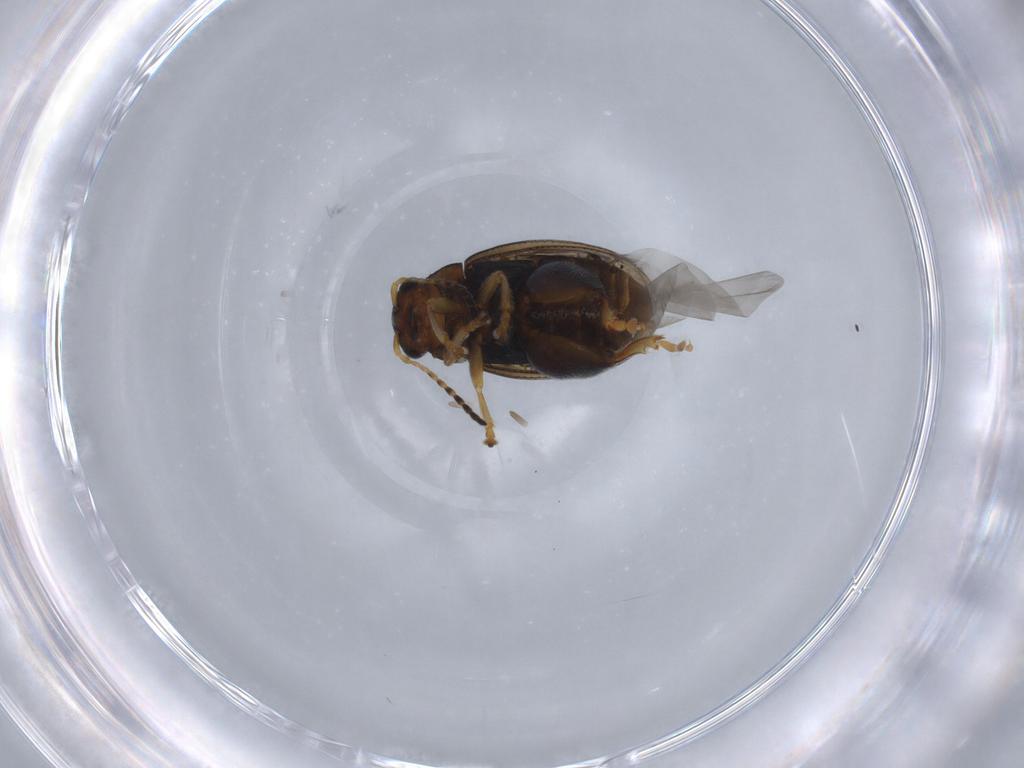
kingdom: Animalia
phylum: Arthropoda
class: Insecta
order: Coleoptera
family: Chrysomelidae
